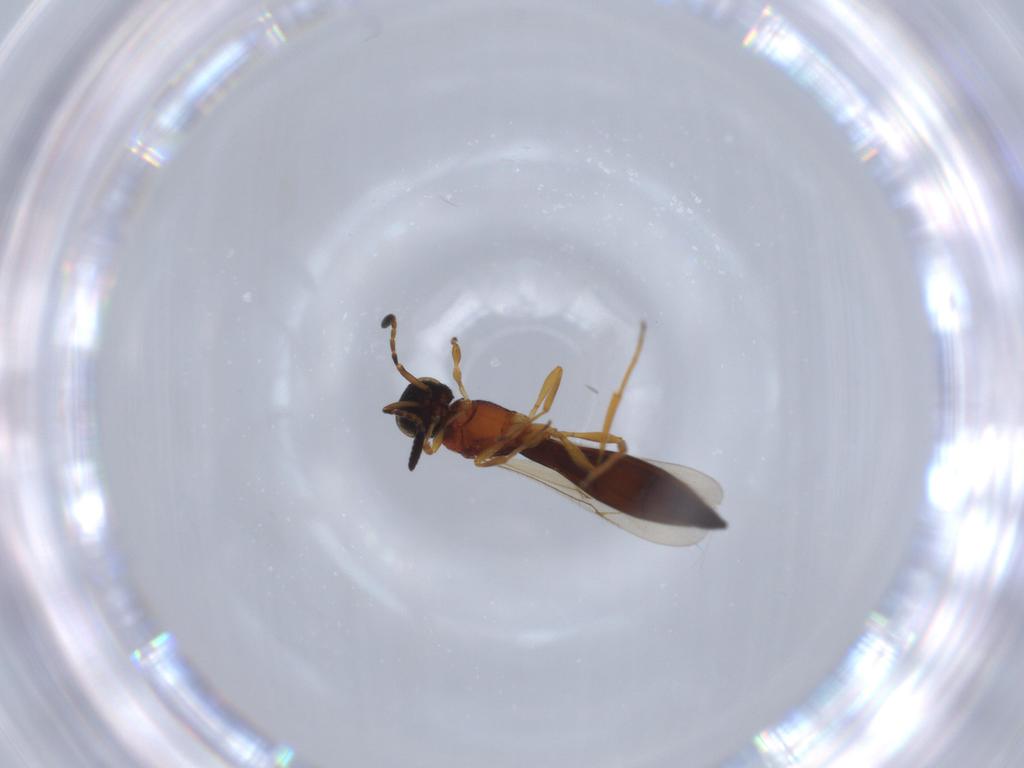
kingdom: Animalia
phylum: Arthropoda
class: Insecta
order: Hymenoptera
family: Scelionidae
